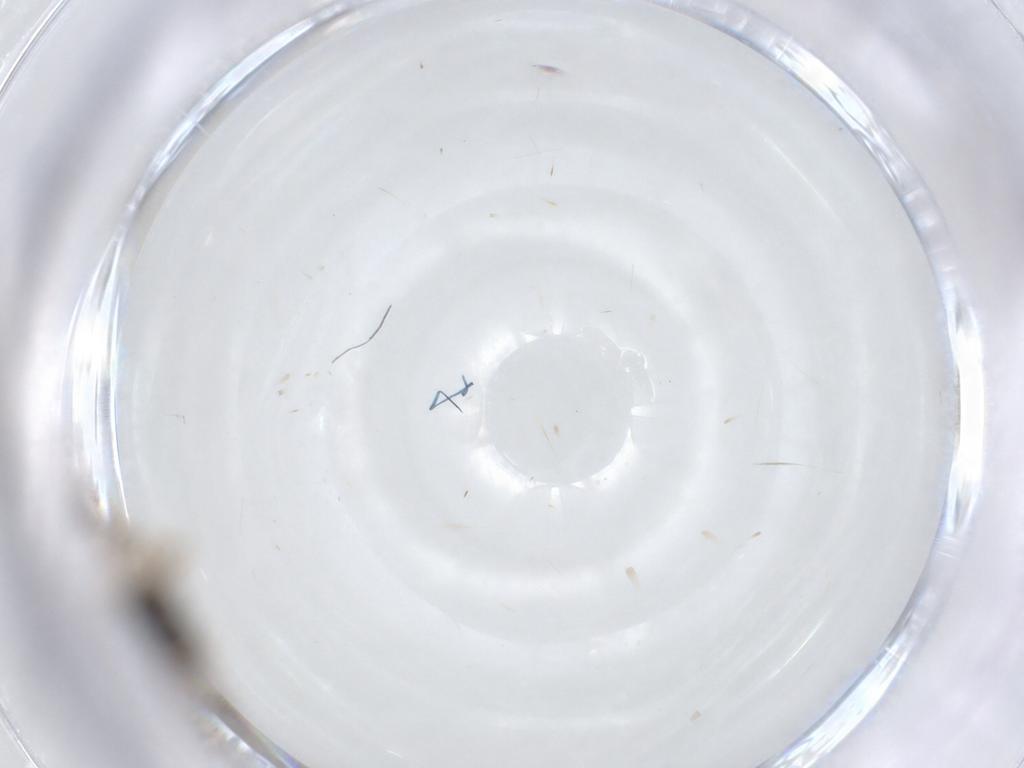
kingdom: Animalia
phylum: Arthropoda
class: Insecta
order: Hymenoptera
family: Braconidae
